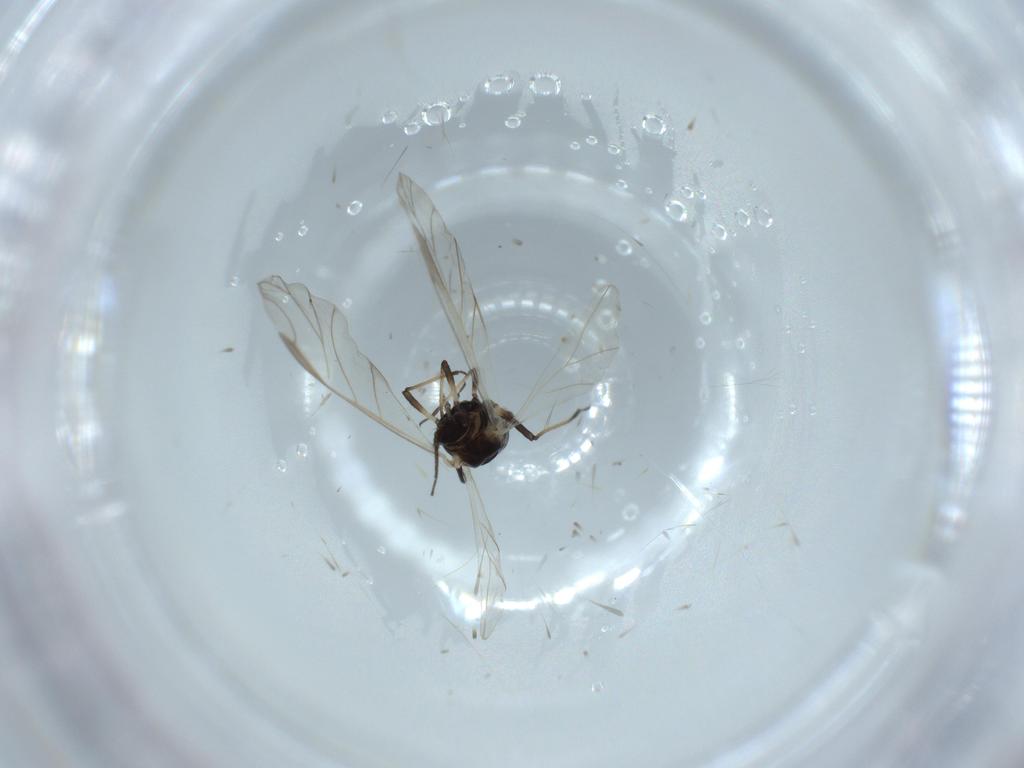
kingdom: Animalia
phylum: Arthropoda
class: Insecta
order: Hemiptera
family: Aphididae
